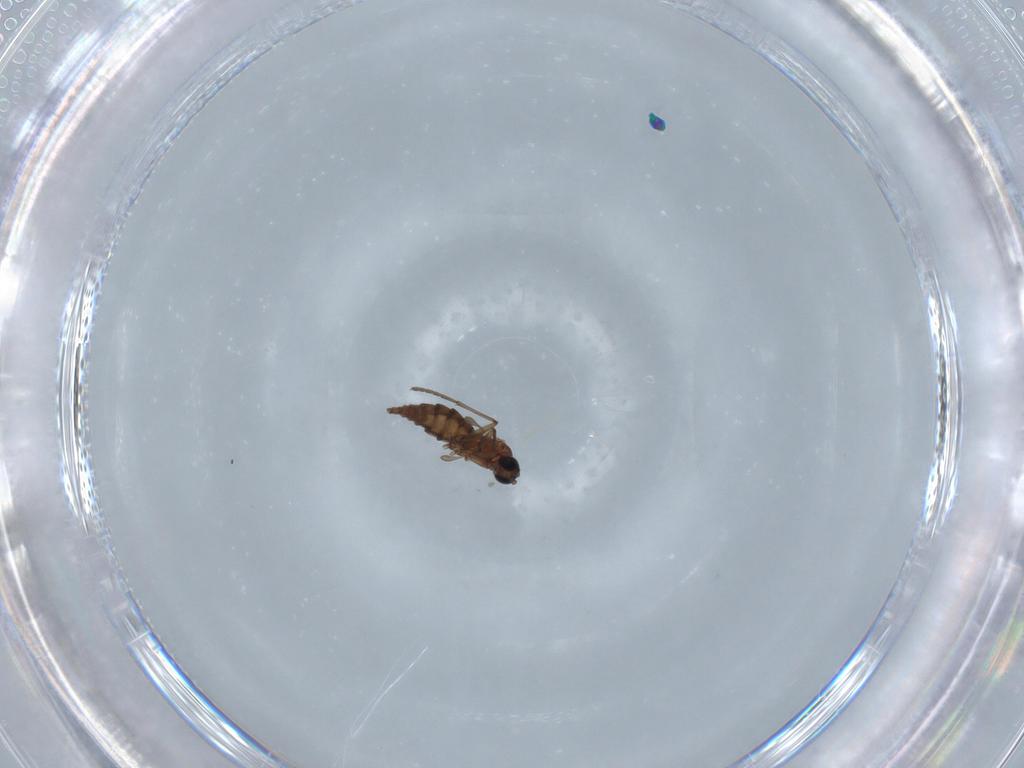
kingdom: Animalia
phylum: Arthropoda
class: Insecta
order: Diptera
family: Sciaridae
